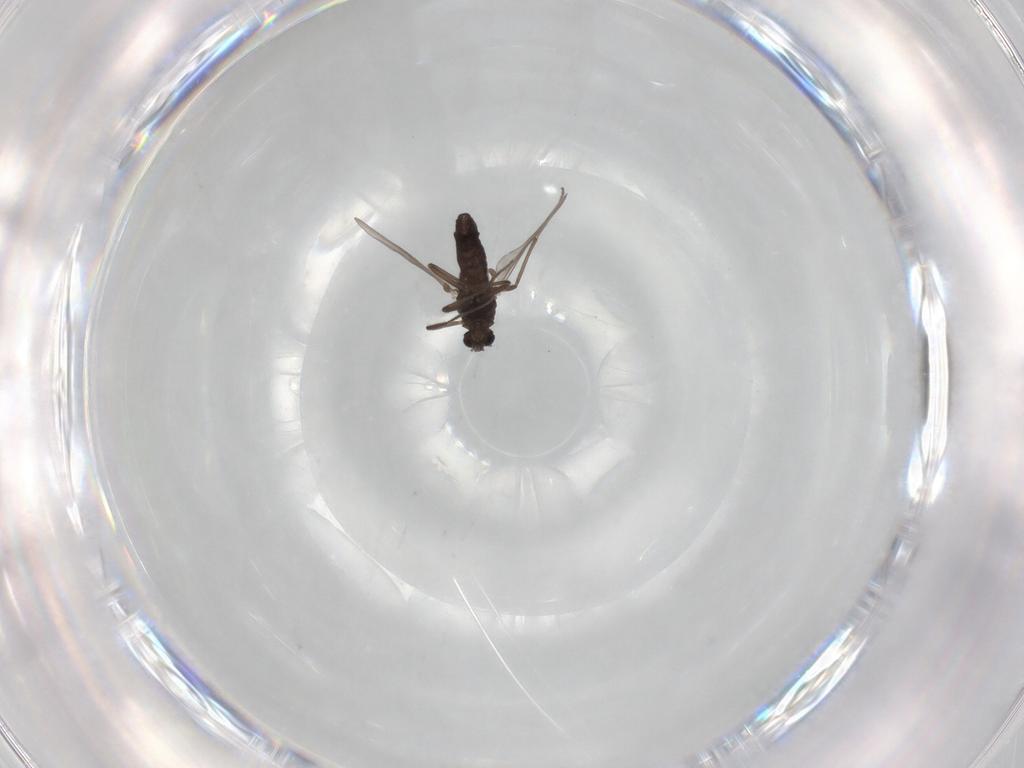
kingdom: Animalia
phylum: Arthropoda
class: Insecta
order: Diptera
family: Chironomidae
